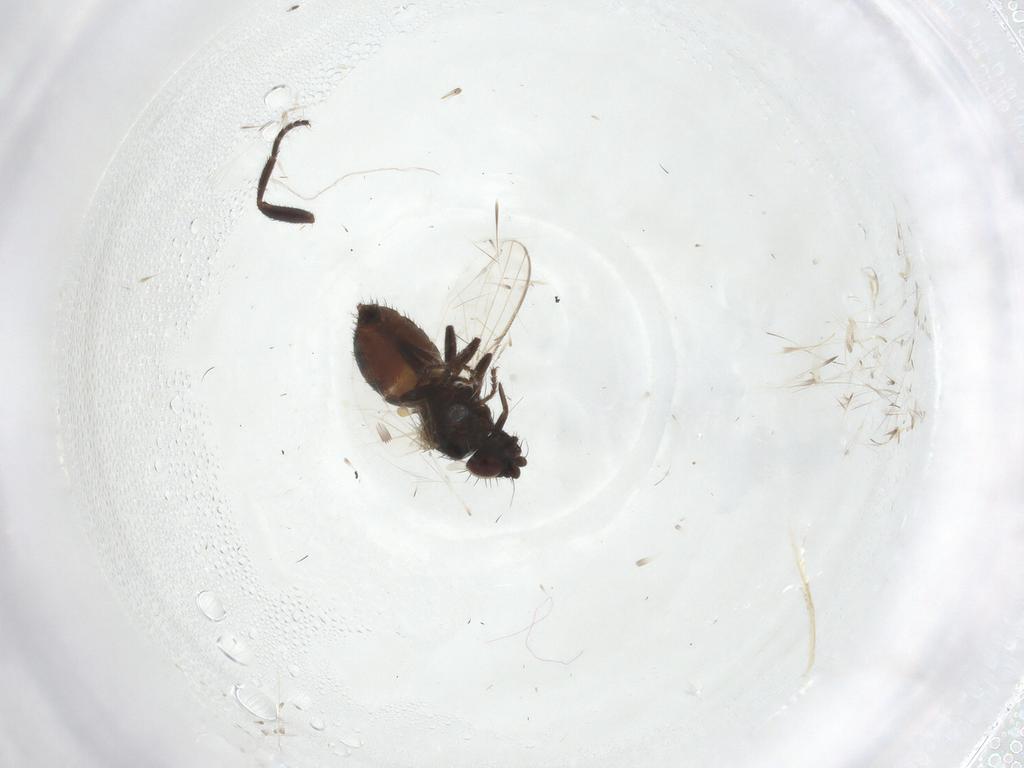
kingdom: Animalia
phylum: Arthropoda
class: Insecta
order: Diptera
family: Milichiidae
